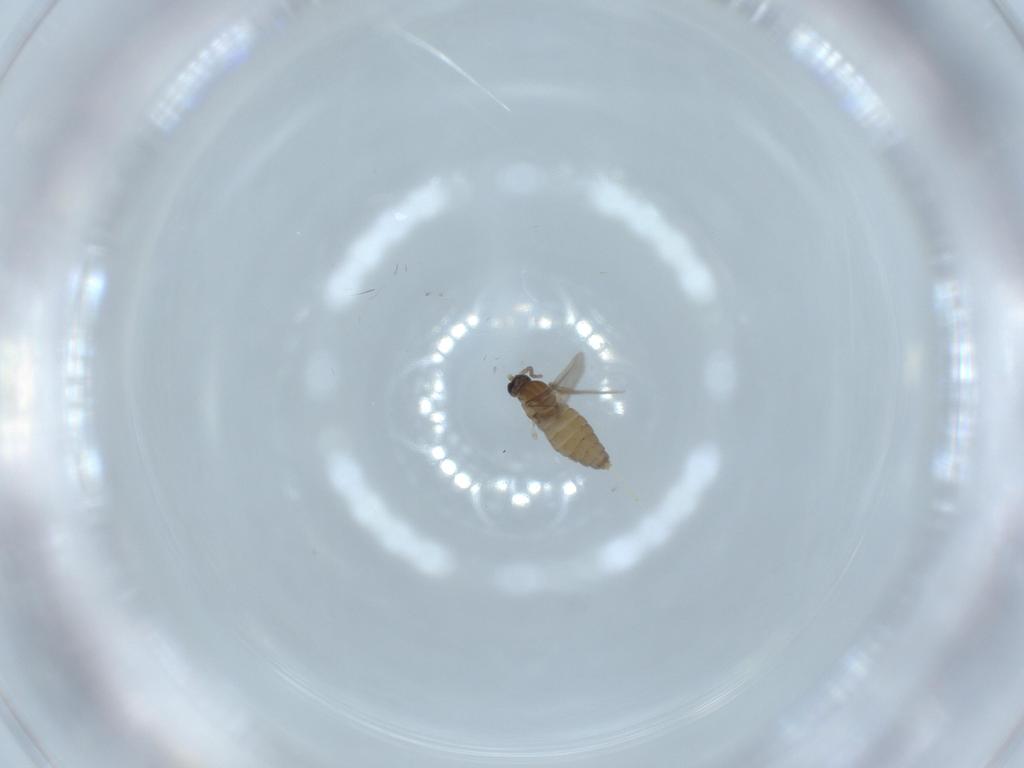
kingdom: Animalia
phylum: Arthropoda
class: Insecta
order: Diptera
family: Cecidomyiidae
